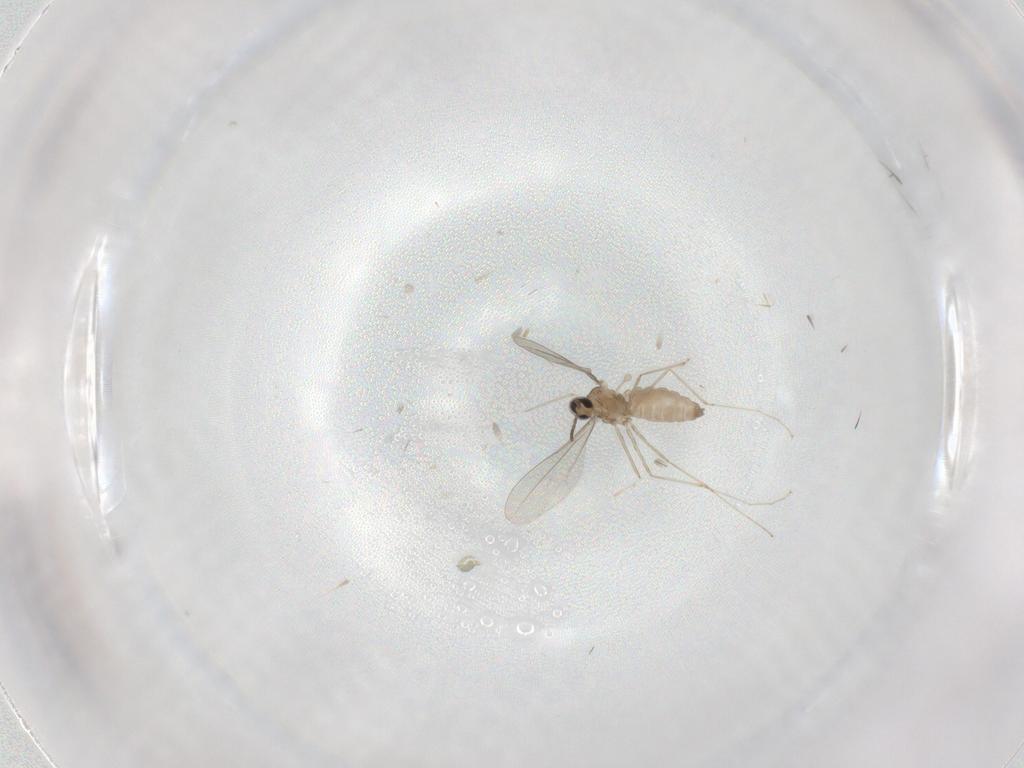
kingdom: Animalia
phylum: Arthropoda
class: Insecta
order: Diptera
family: Cecidomyiidae
